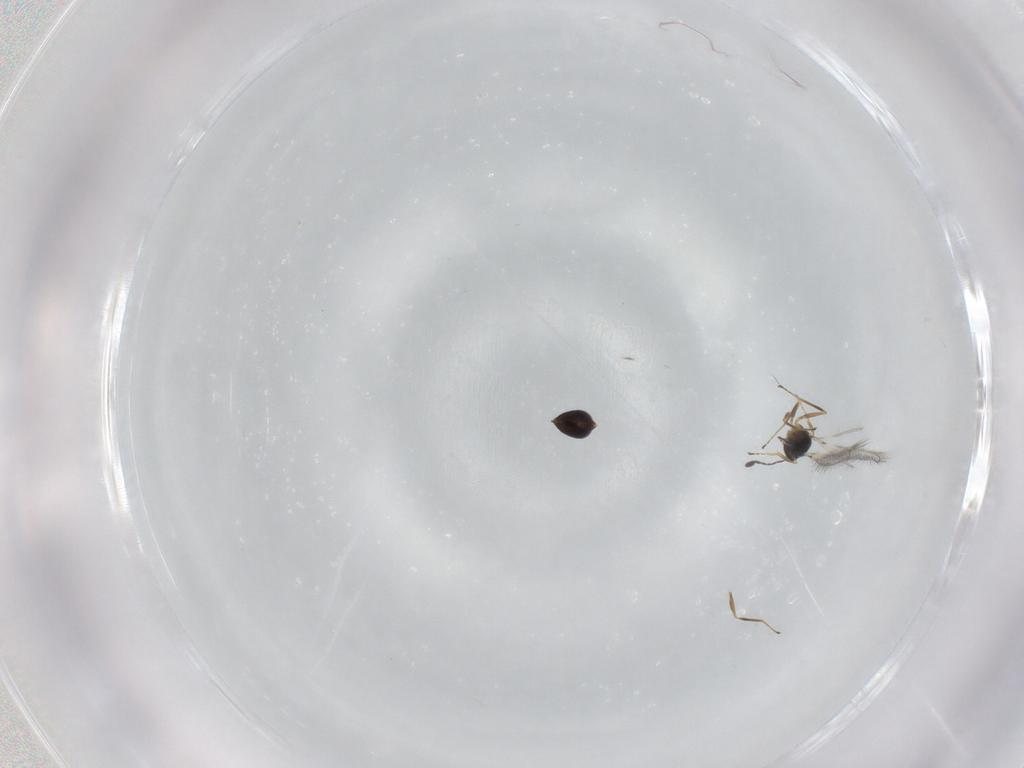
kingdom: Animalia
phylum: Arthropoda
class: Insecta
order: Hymenoptera
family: Mymaridae
